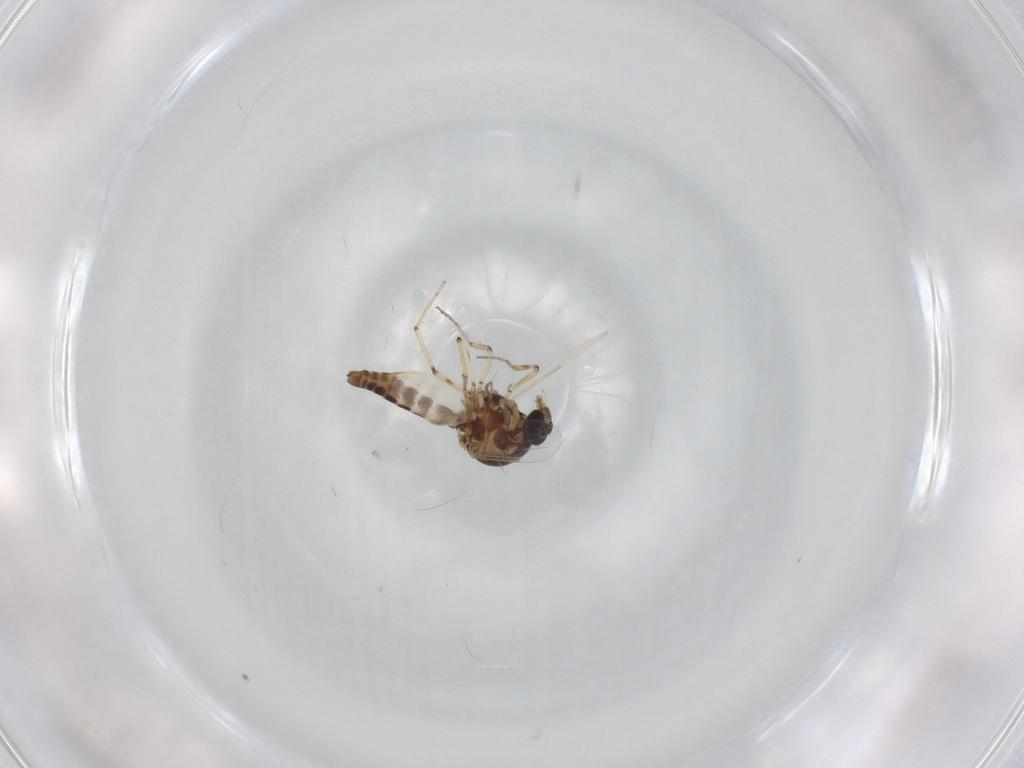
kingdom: Animalia
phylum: Arthropoda
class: Insecta
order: Diptera
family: Ceratopogonidae
